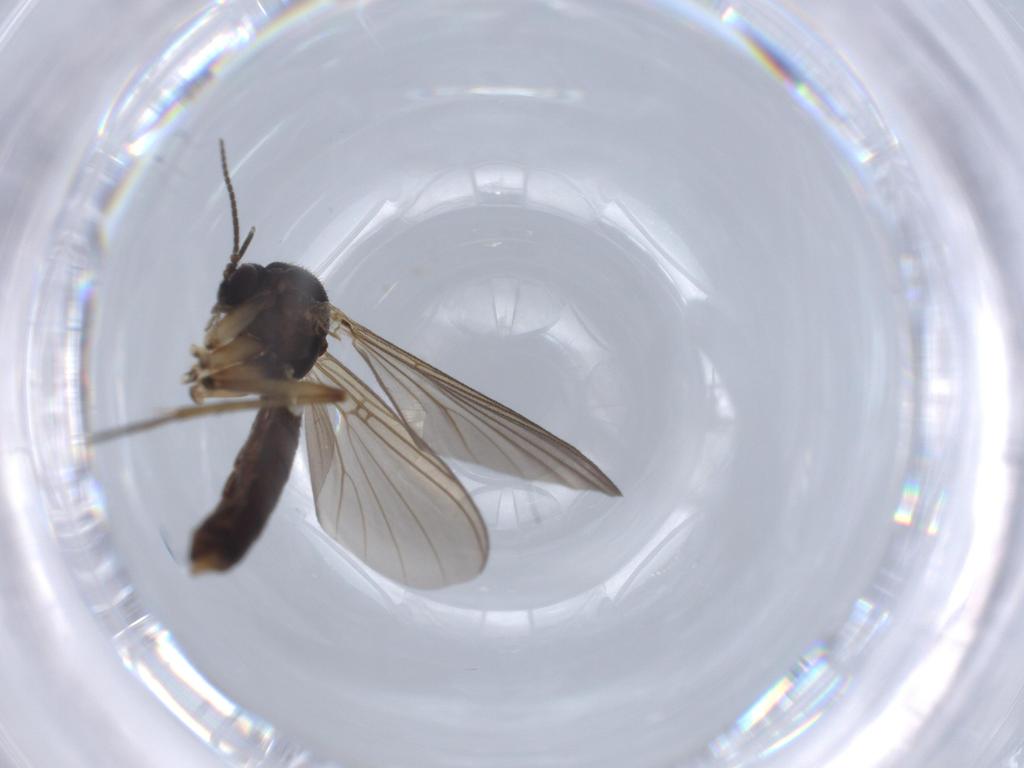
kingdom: Animalia
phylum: Arthropoda
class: Insecta
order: Diptera
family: Mycetophilidae
